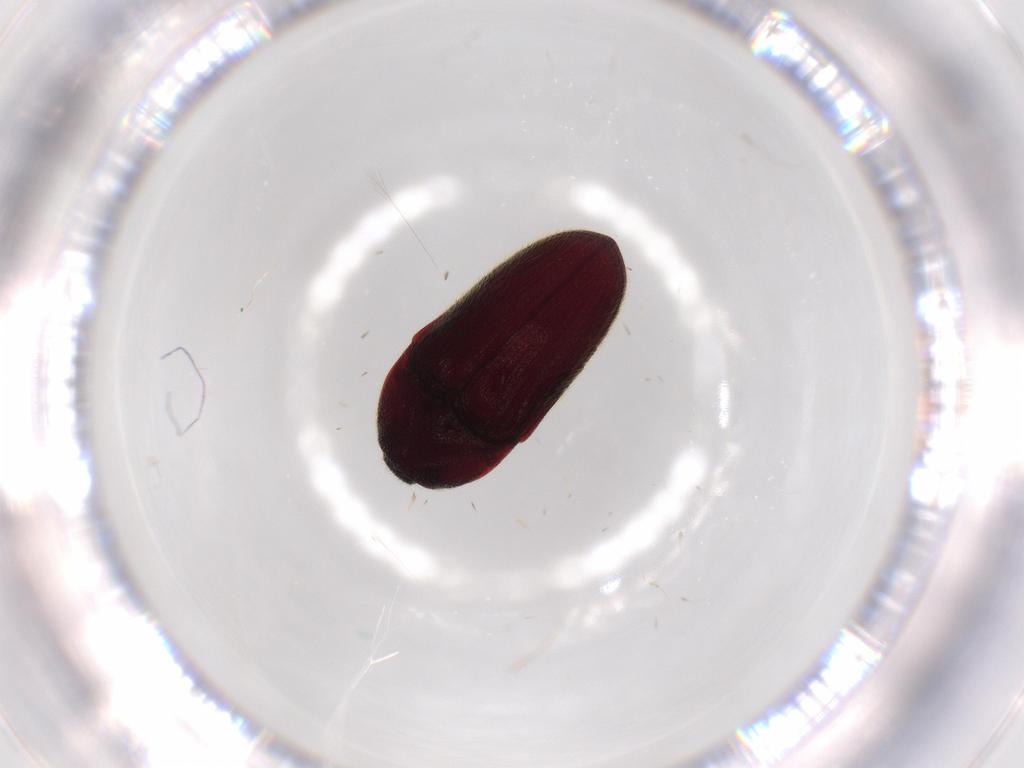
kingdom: Animalia
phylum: Arthropoda
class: Insecta
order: Coleoptera
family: Throscidae
